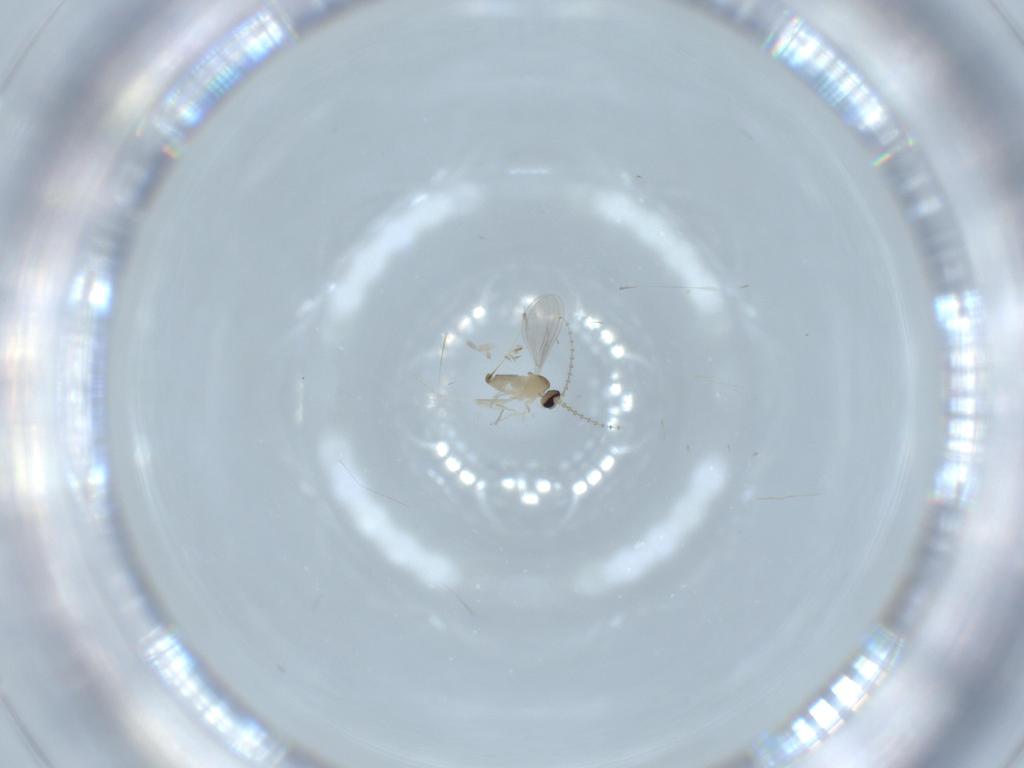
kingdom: Animalia
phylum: Arthropoda
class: Insecta
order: Diptera
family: Cecidomyiidae
